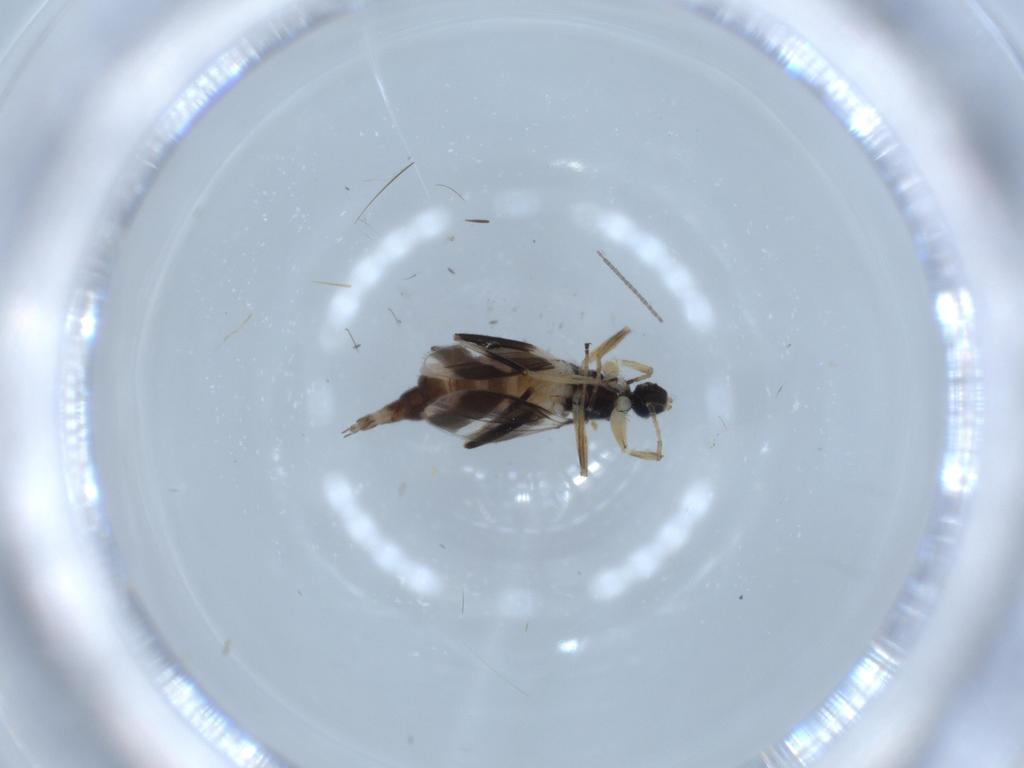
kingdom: Animalia
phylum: Arthropoda
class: Insecta
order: Diptera
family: Hybotidae
